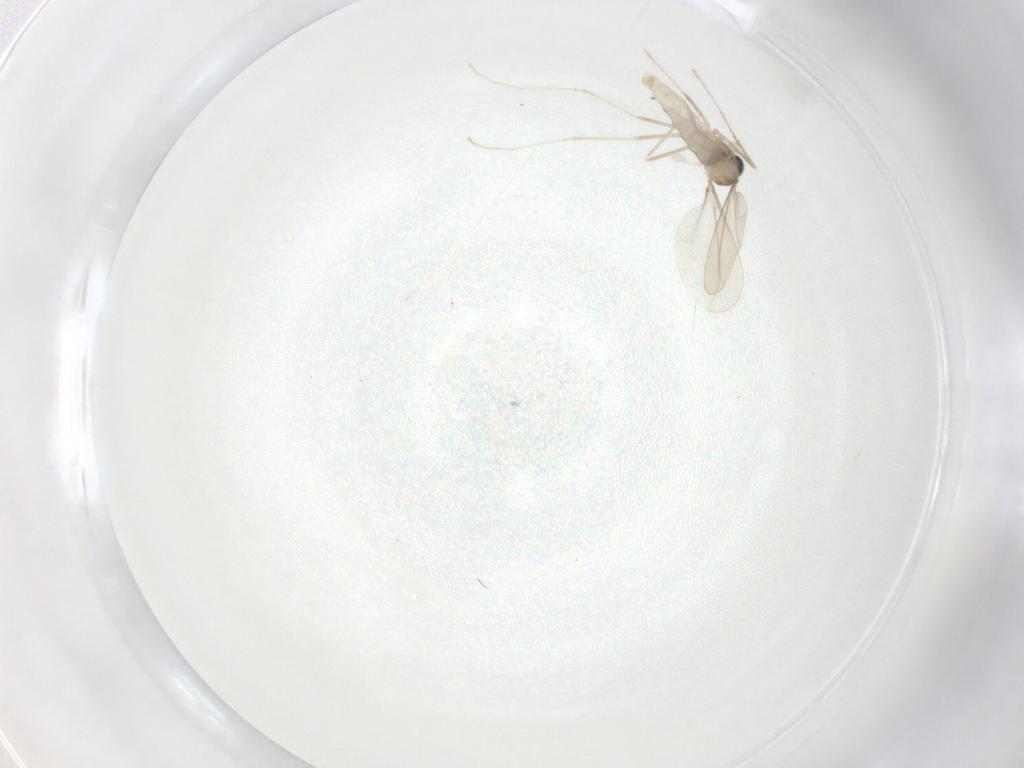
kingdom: Animalia
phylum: Arthropoda
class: Insecta
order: Diptera
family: Cecidomyiidae
